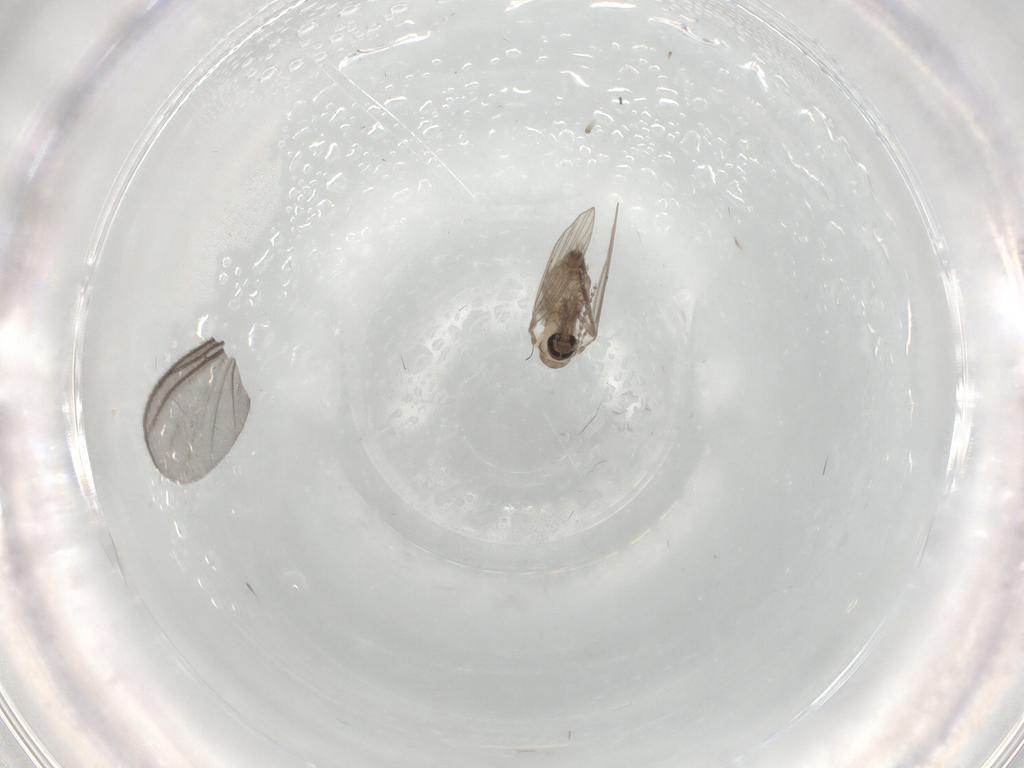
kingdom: Animalia
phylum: Arthropoda
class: Insecta
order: Diptera
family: Psychodidae
